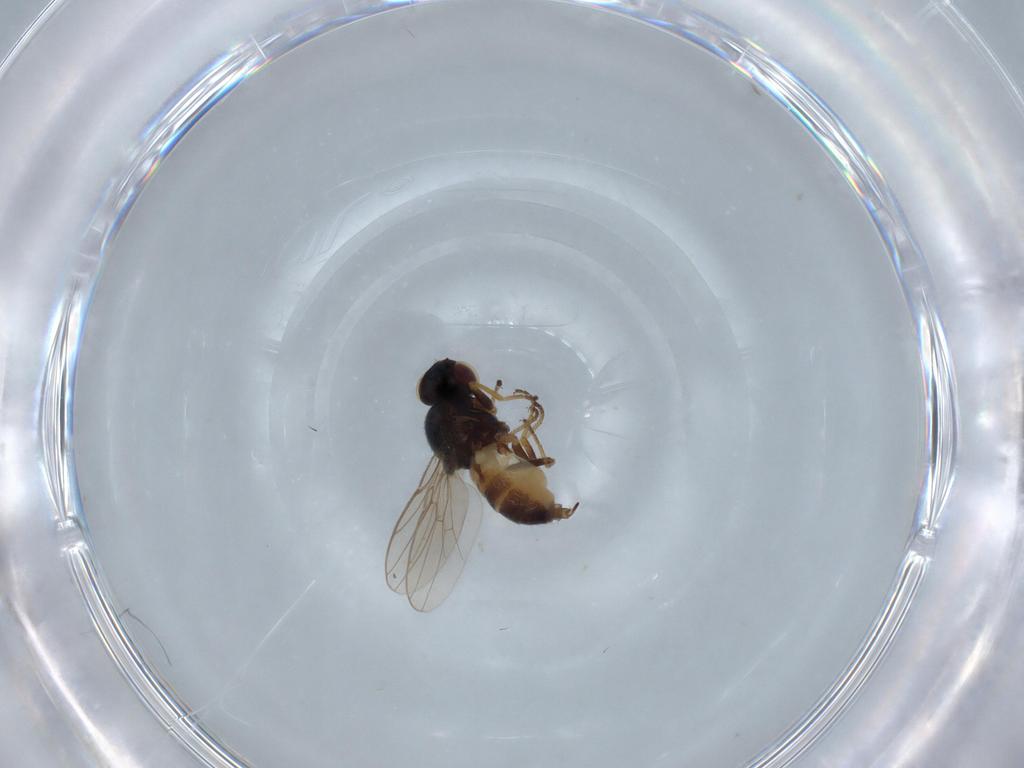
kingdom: Animalia
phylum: Arthropoda
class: Insecta
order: Diptera
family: Chloropidae
